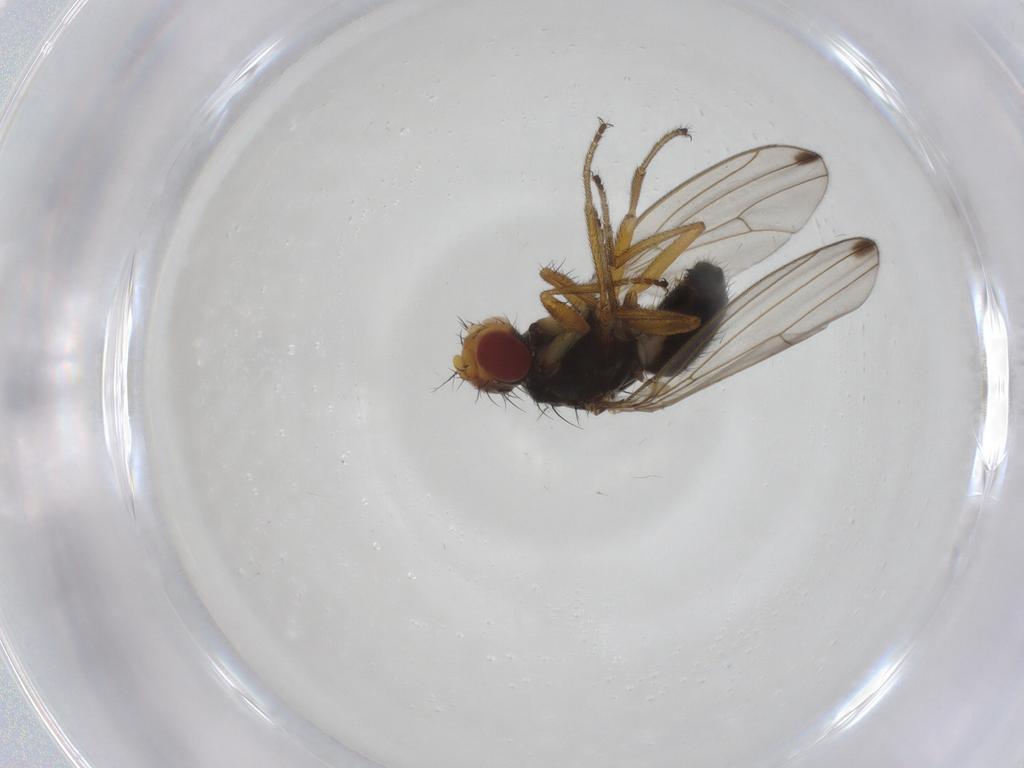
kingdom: Animalia
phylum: Arthropoda
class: Insecta
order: Diptera
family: Drosophilidae
